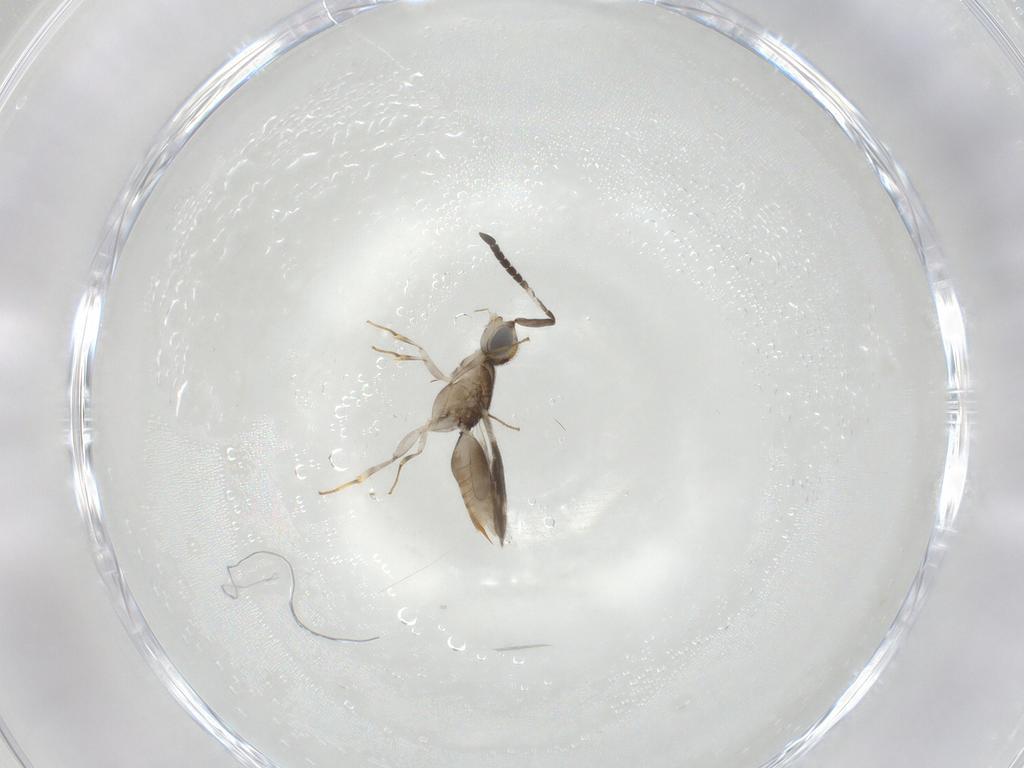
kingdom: Animalia
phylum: Arthropoda
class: Insecta
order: Coleoptera
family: Zopheridae
